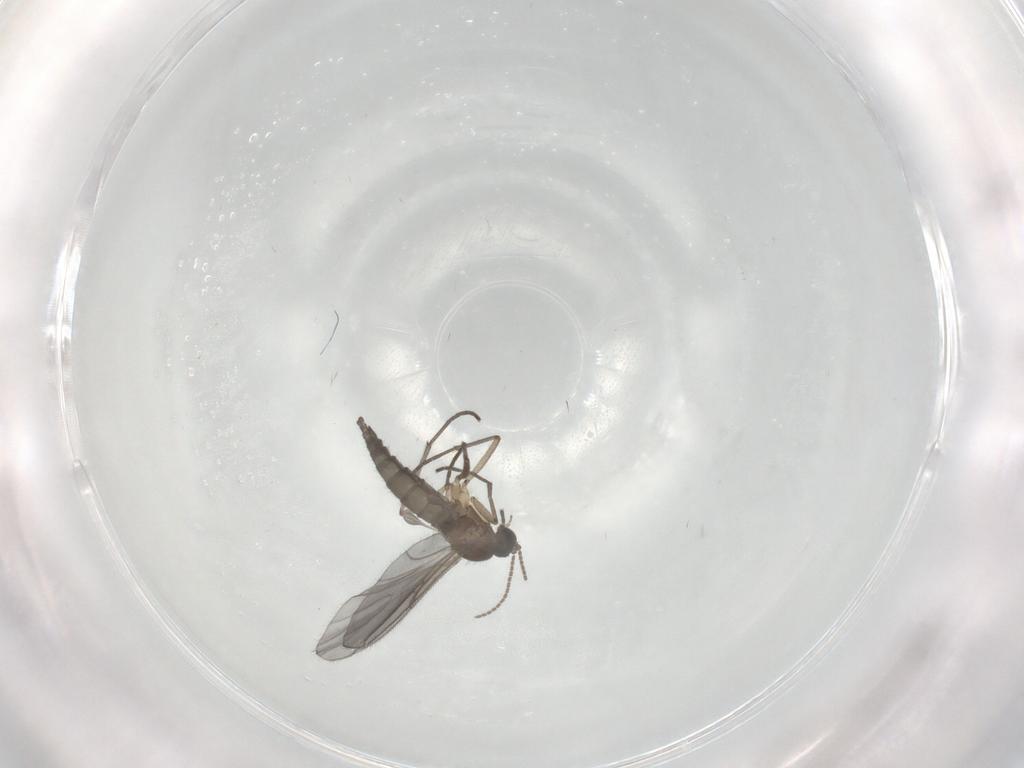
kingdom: Animalia
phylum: Arthropoda
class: Insecta
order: Diptera
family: Sciaridae
